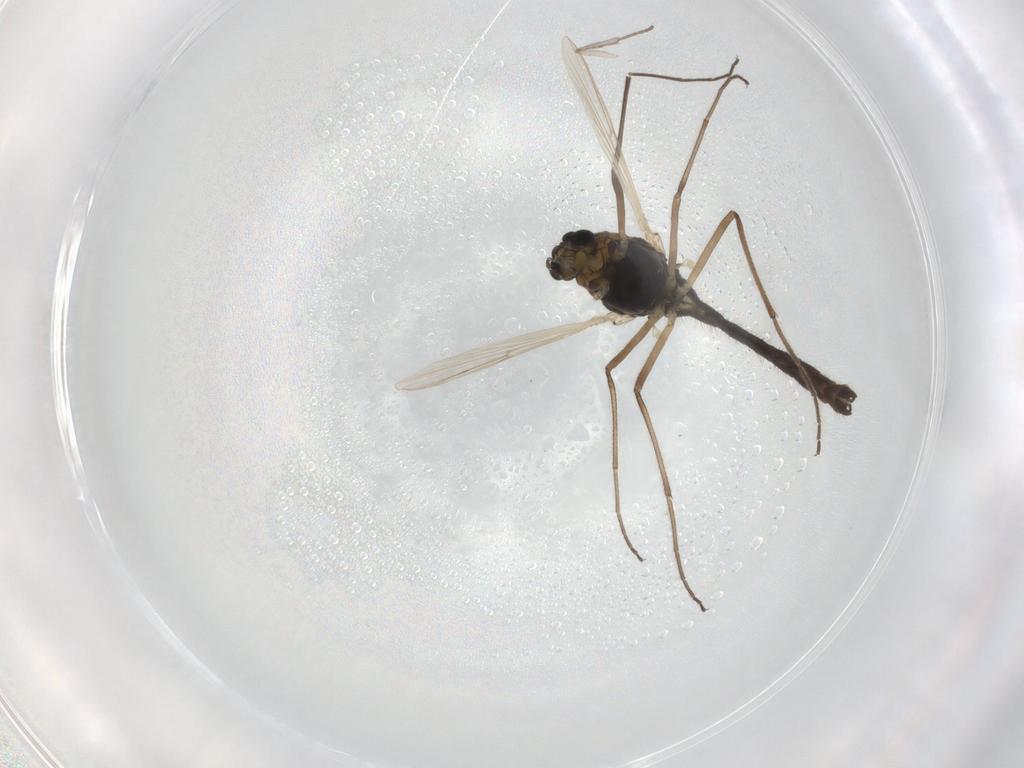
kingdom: Animalia
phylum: Arthropoda
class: Insecta
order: Diptera
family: Chironomidae
